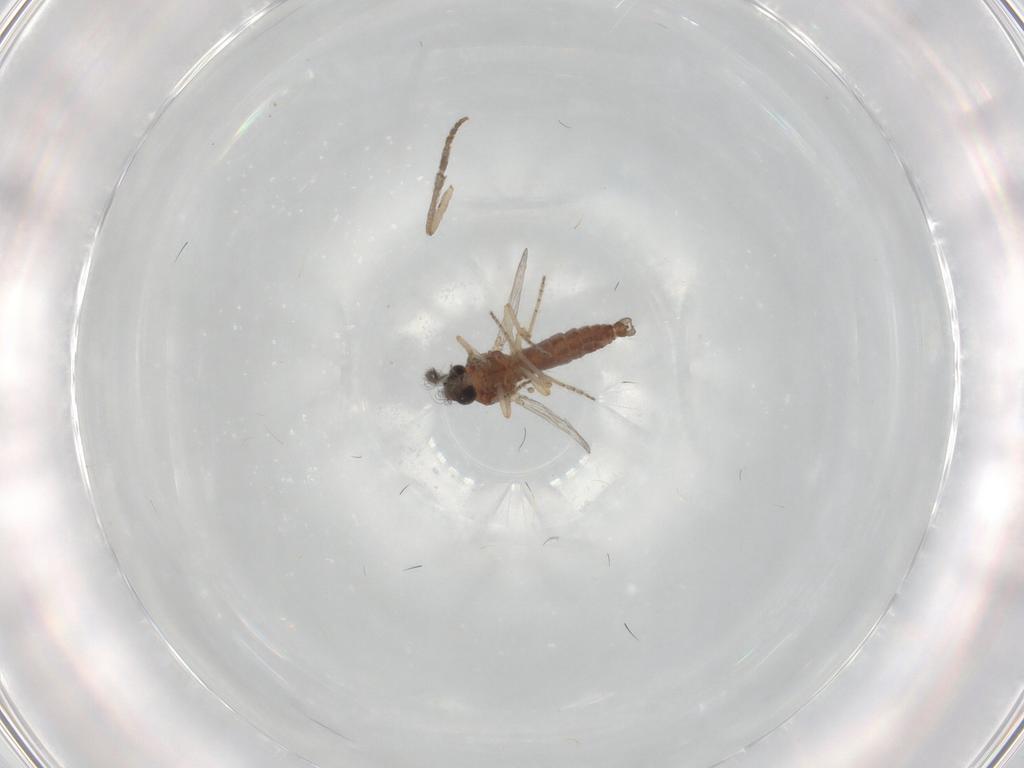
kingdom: Animalia
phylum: Arthropoda
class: Insecta
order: Diptera
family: Ceratopogonidae
